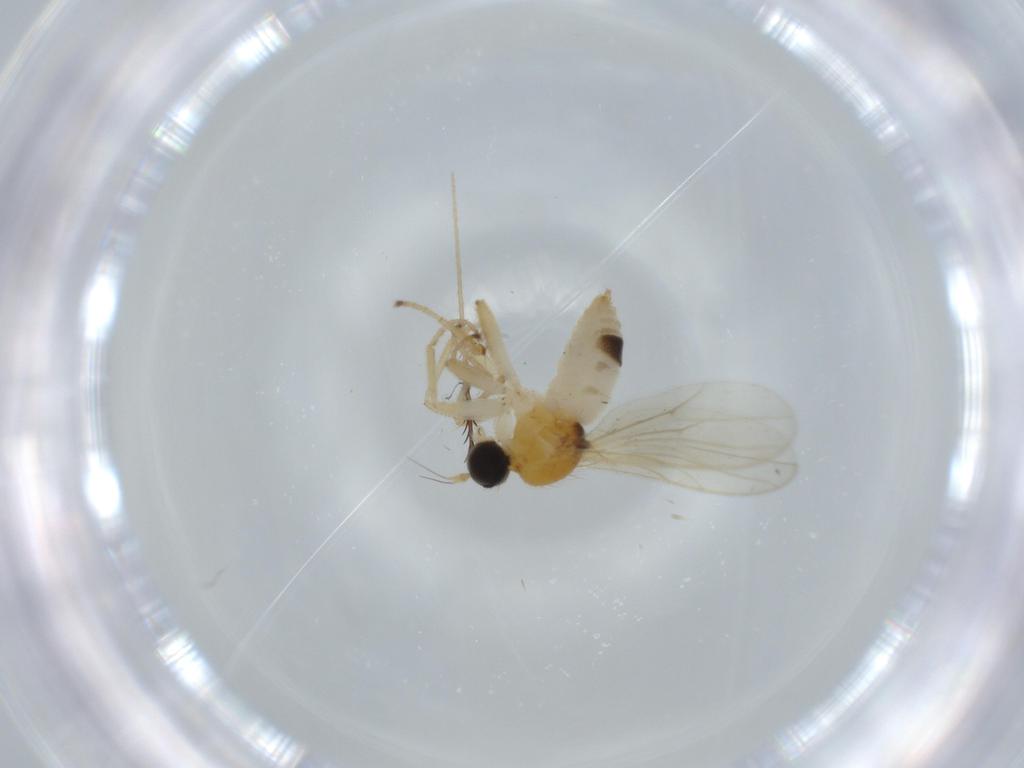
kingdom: Animalia
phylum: Arthropoda
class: Insecta
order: Diptera
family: Hybotidae
